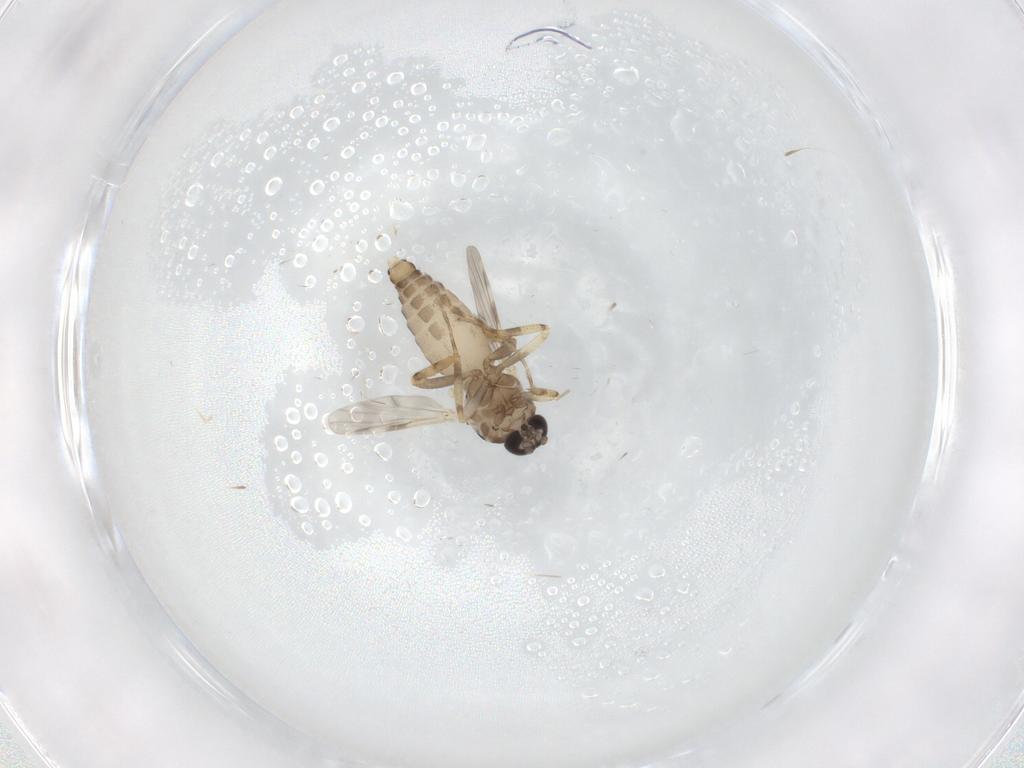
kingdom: Animalia
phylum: Arthropoda
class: Insecta
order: Diptera
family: Ceratopogonidae
